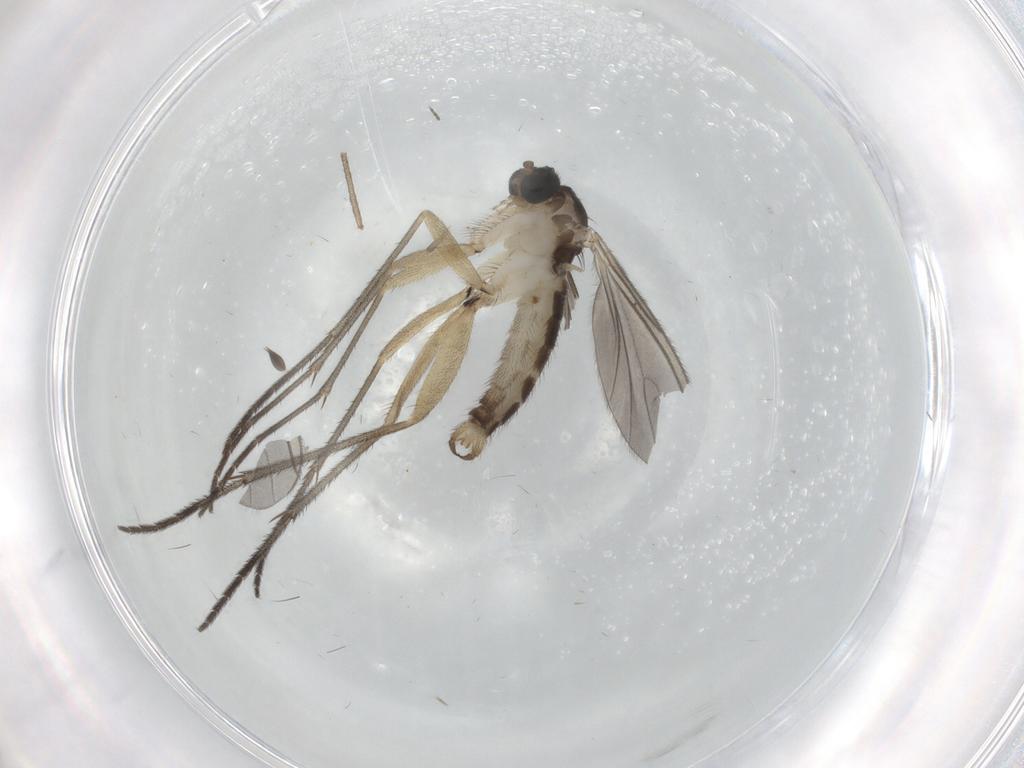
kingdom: Animalia
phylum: Arthropoda
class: Insecta
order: Diptera
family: Sciaridae
